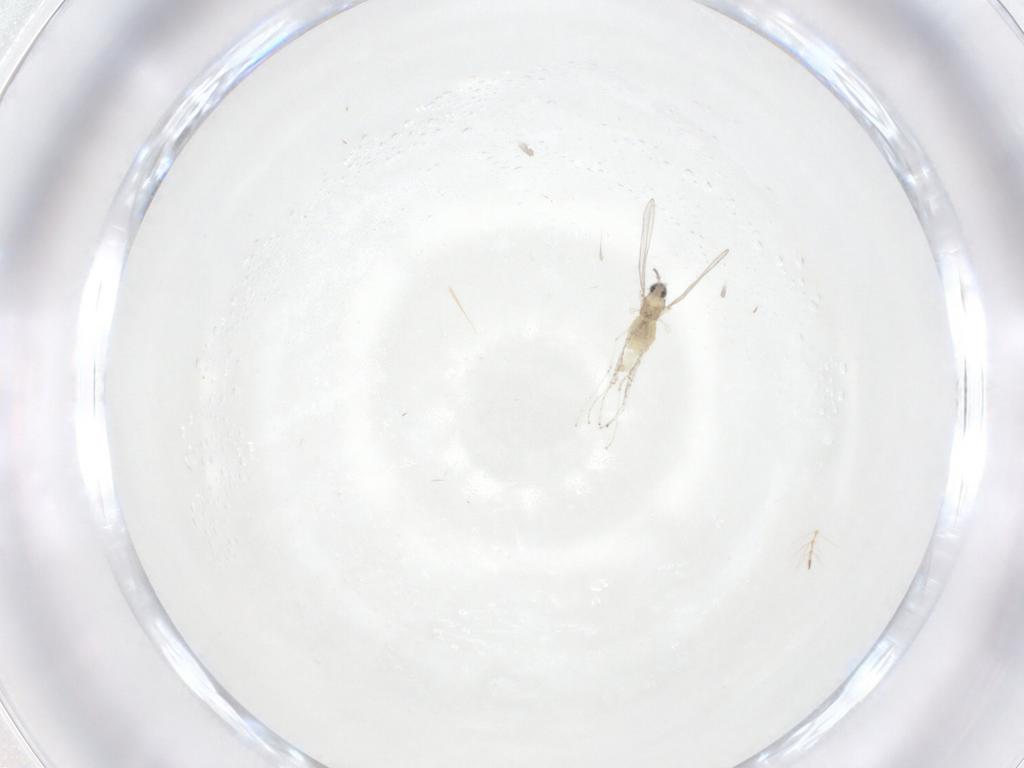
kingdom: Animalia
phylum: Arthropoda
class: Insecta
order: Diptera
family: Cecidomyiidae
